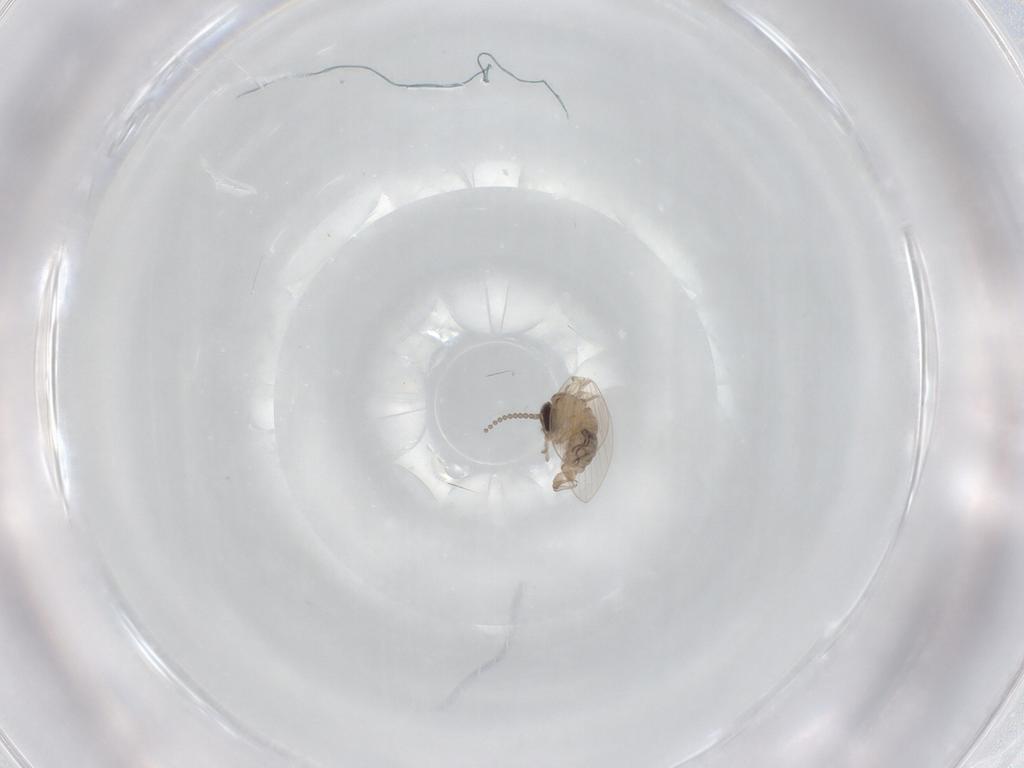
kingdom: Animalia
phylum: Arthropoda
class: Insecta
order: Diptera
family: Psychodidae
